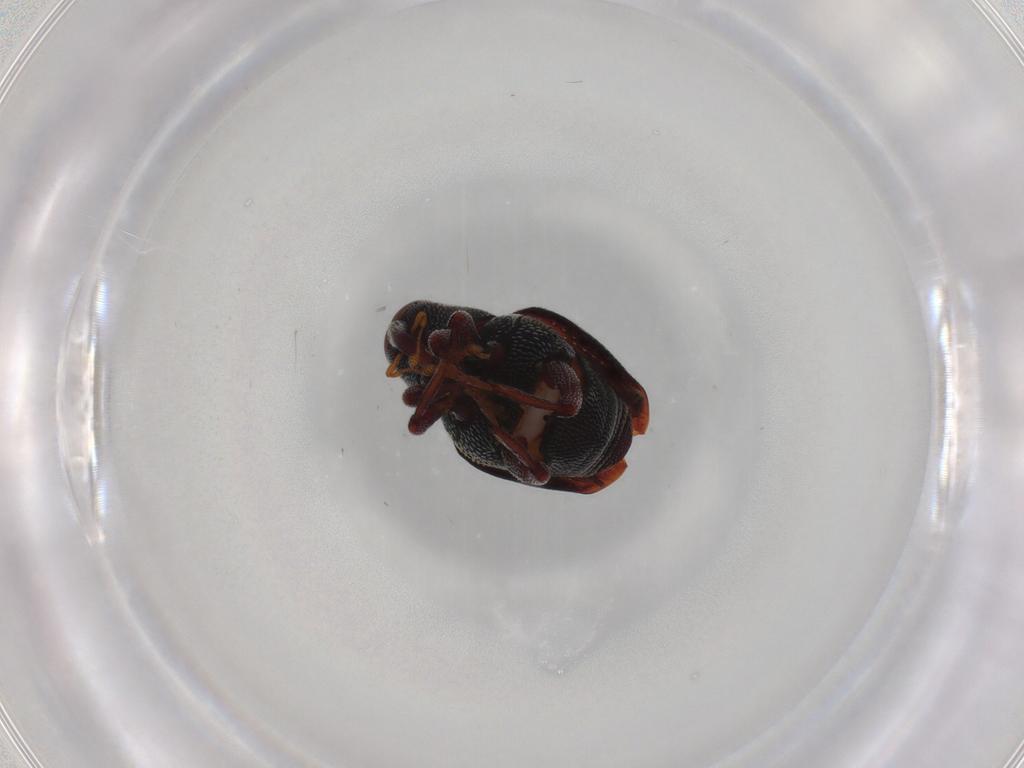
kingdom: Animalia
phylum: Arthropoda
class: Insecta
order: Coleoptera
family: Curculionidae
